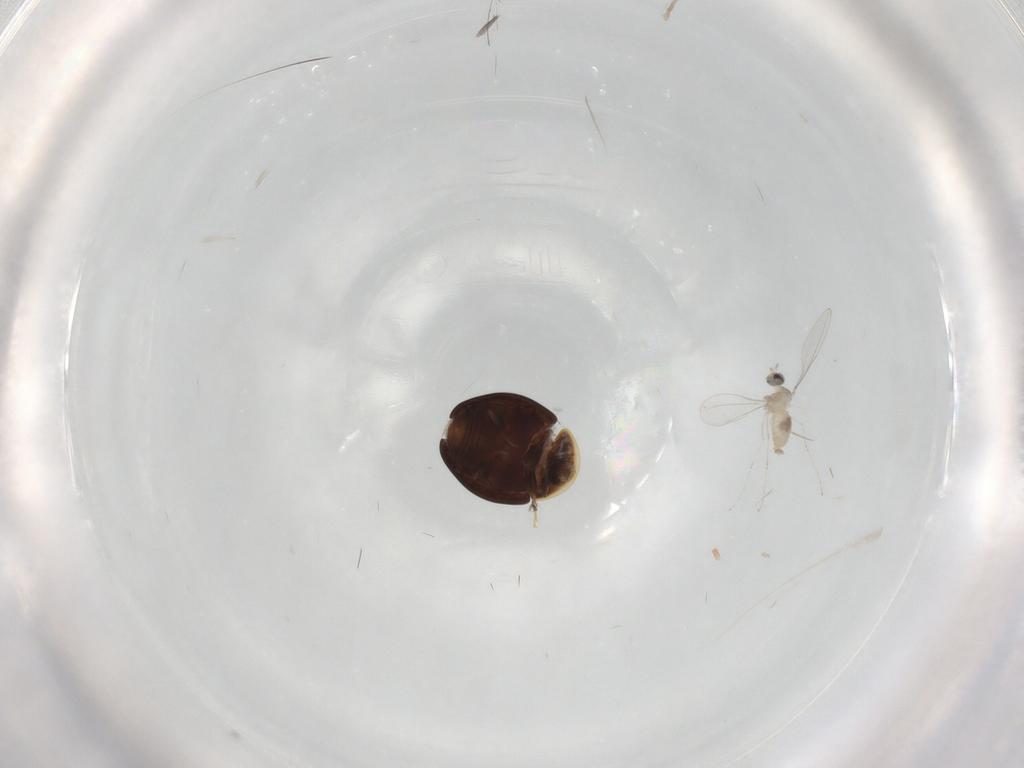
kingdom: Animalia
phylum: Arthropoda
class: Insecta
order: Coleoptera
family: Corylophidae
